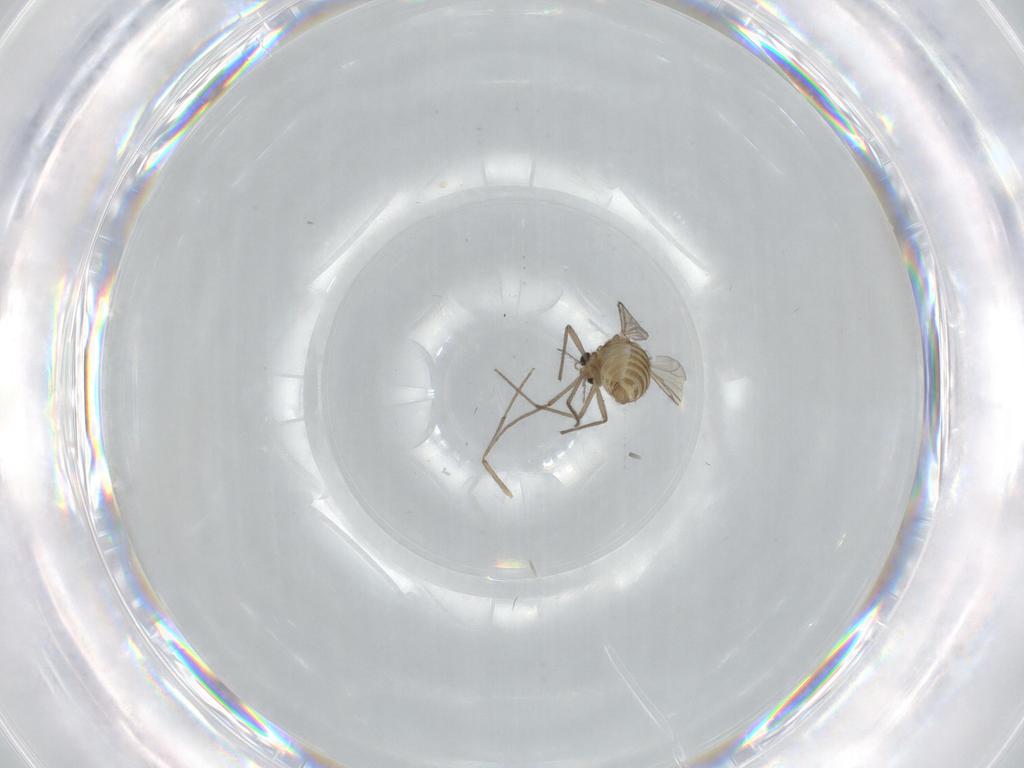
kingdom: Animalia
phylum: Arthropoda
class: Insecta
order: Diptera
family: Chironomidae
